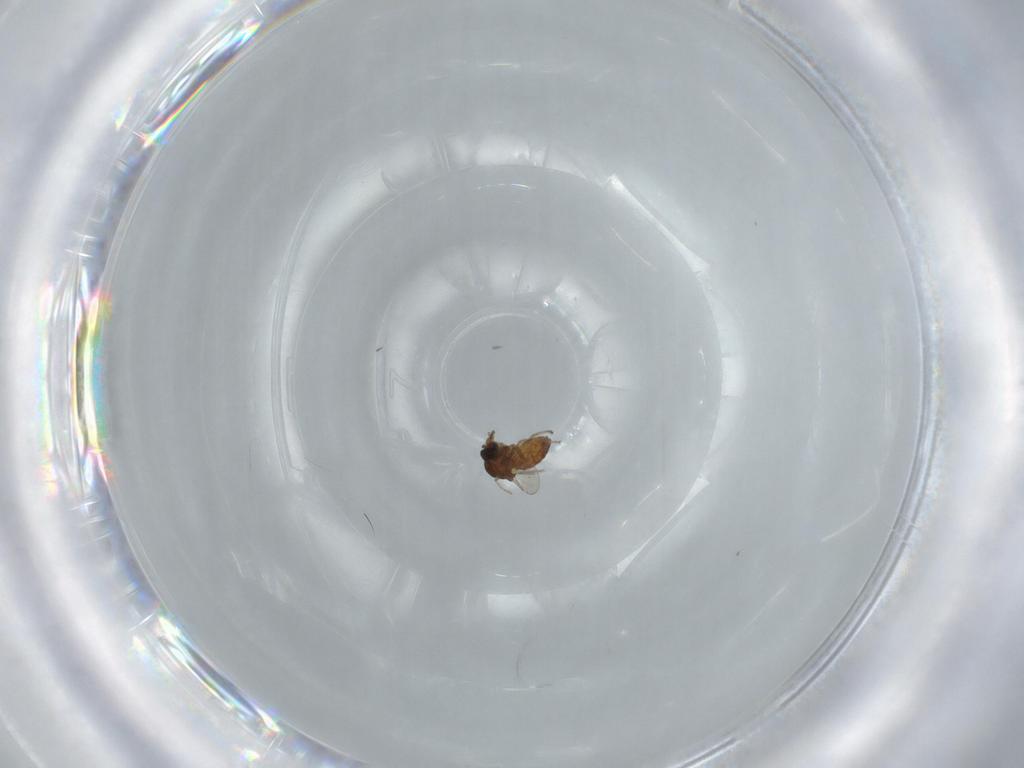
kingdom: Animalia
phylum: Arthropoda
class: Insecta
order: Diptera
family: Ceratopogonidae
